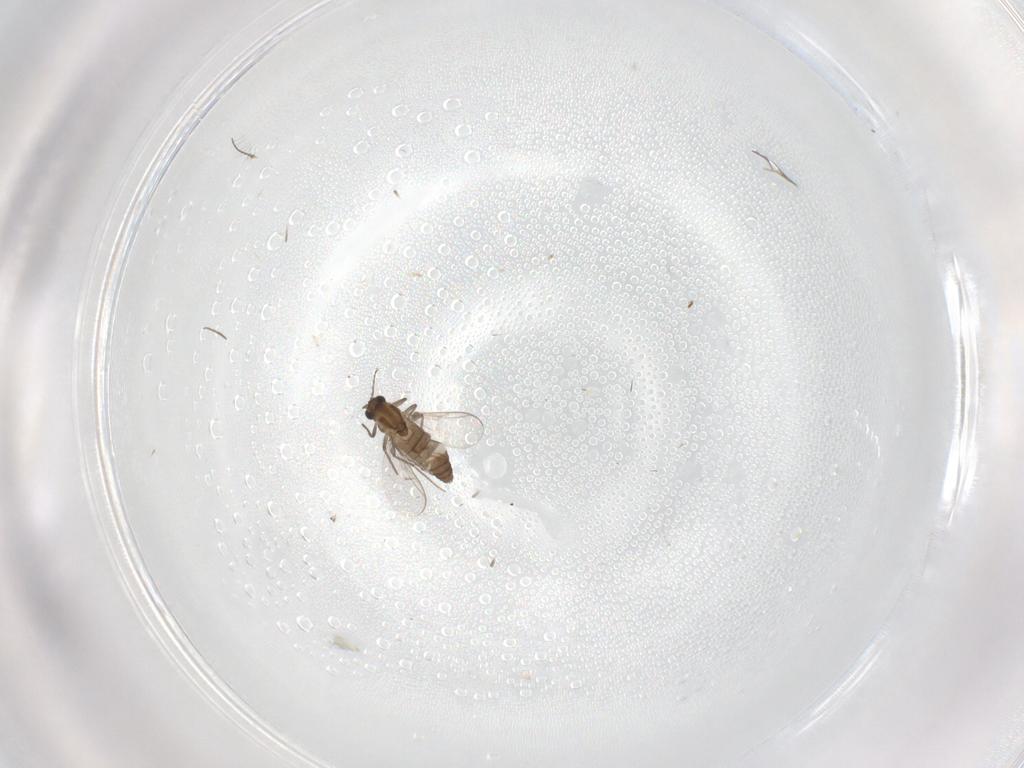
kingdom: Animalia
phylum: Arthropoda
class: Insecta
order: Diptera
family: Chironomidae
